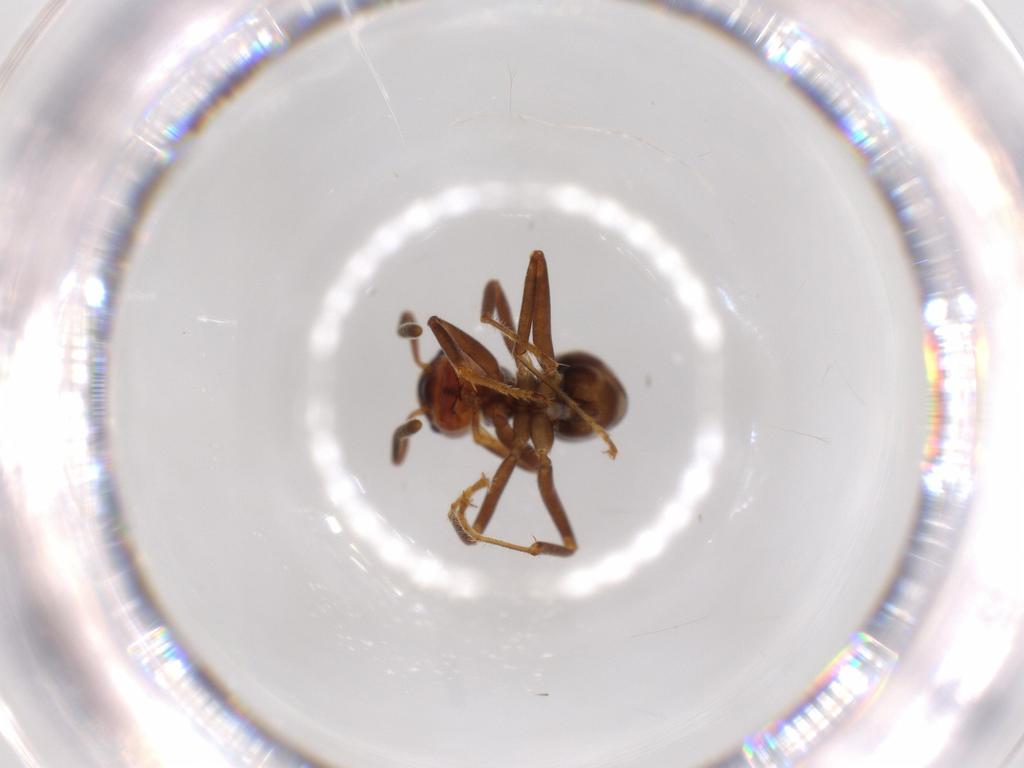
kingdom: Animalia
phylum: Arthropoda
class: Insecta
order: Hymenoptera
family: Formicidae
